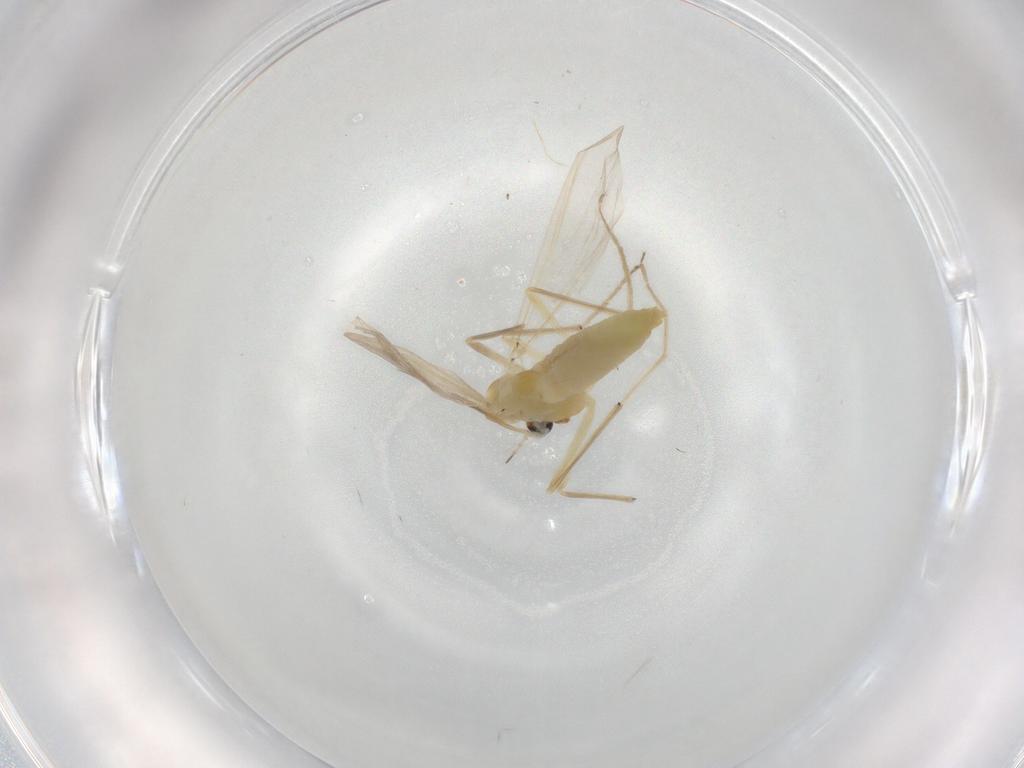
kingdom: Animalia
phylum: Arthropoda
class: Insecta
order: Diptera
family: Chironomidae
